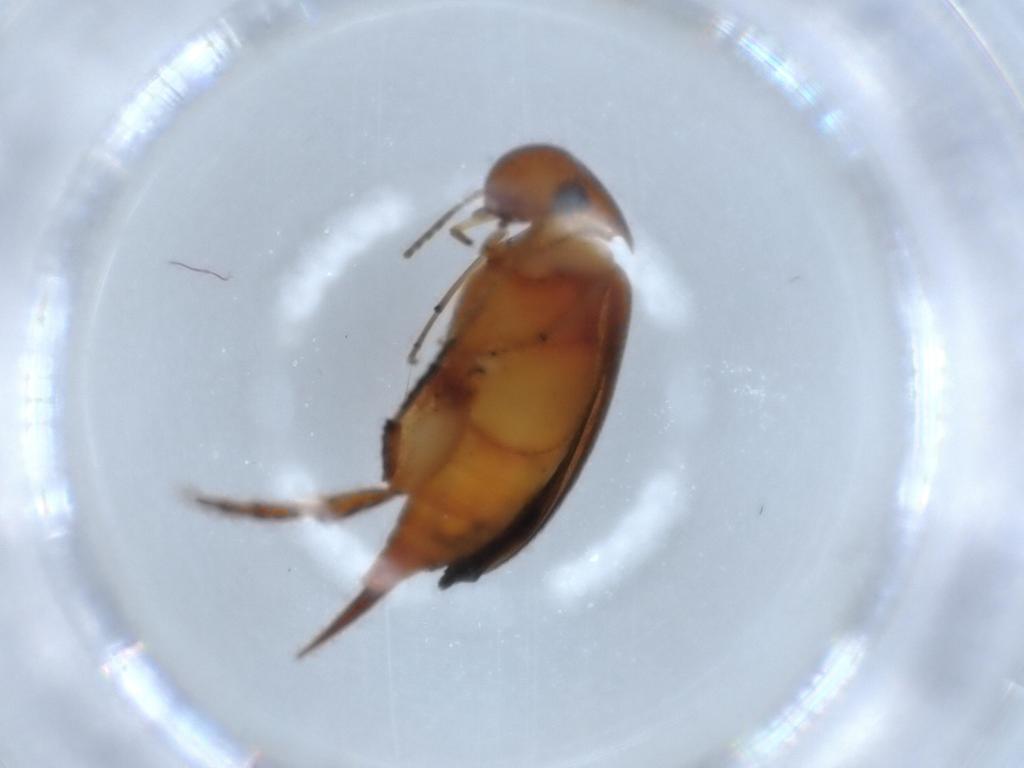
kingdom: Animalia
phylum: Arthropoda
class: Insecta
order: Coleoptera
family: Mordellidae
